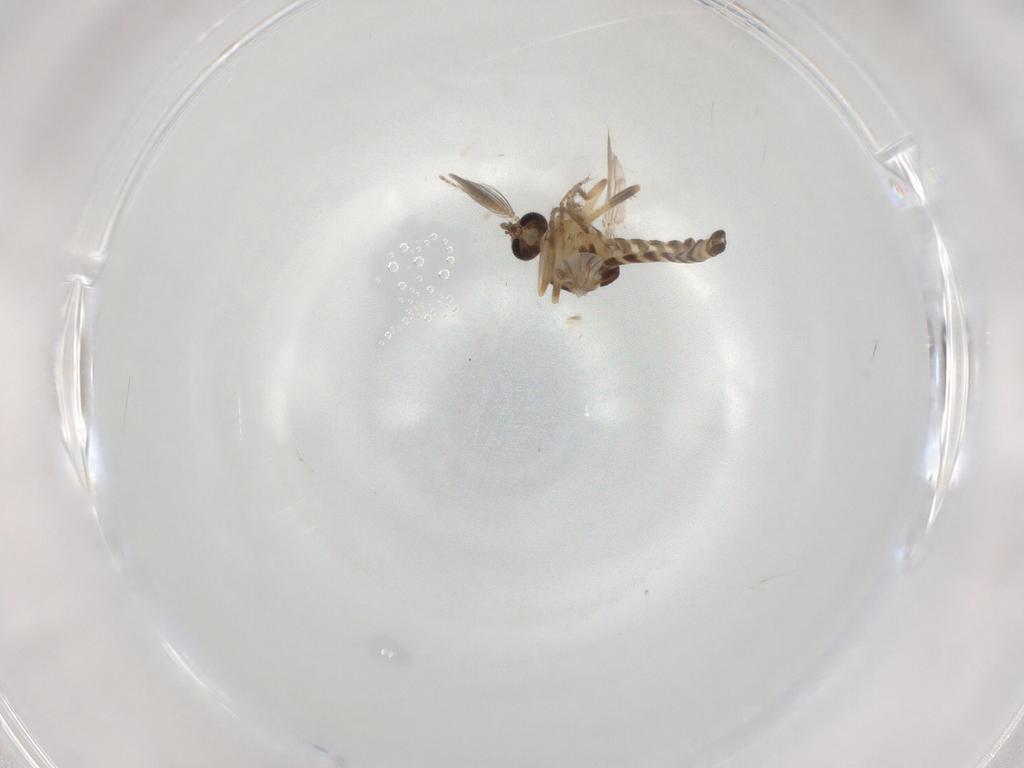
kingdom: Animalia
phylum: Arthropoda
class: Insecta
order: Diptera
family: Ceratopogonidae
